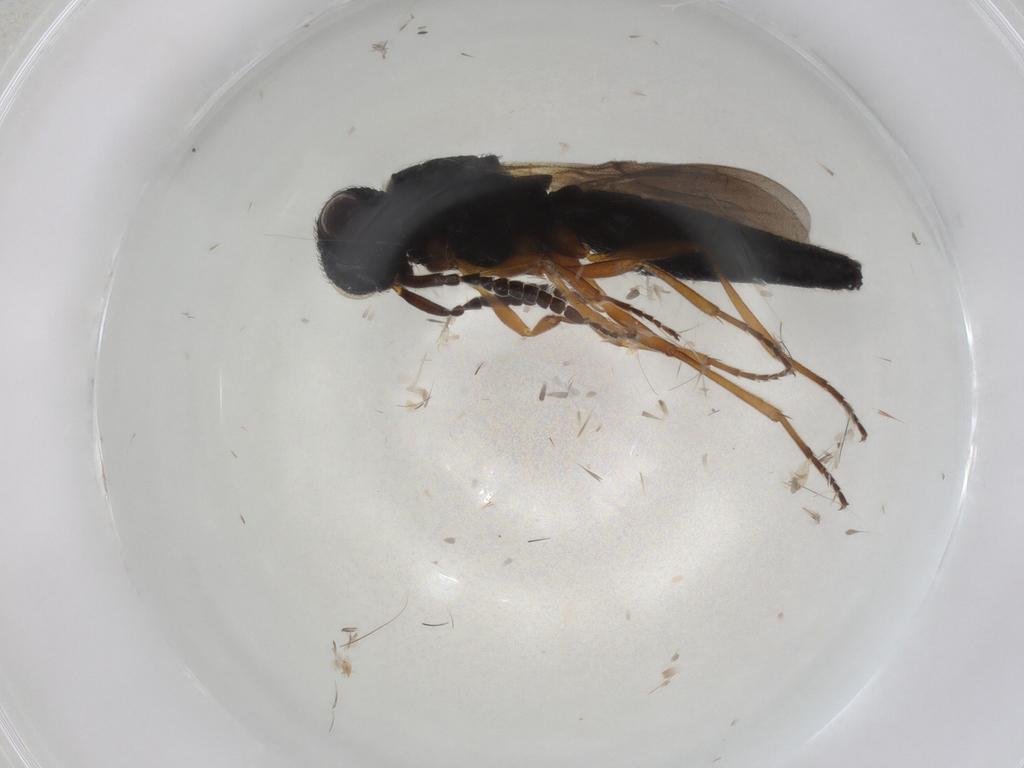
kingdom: Animalia
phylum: Arthropoda
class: Insecta
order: Hymenoptera
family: Scelionidae
